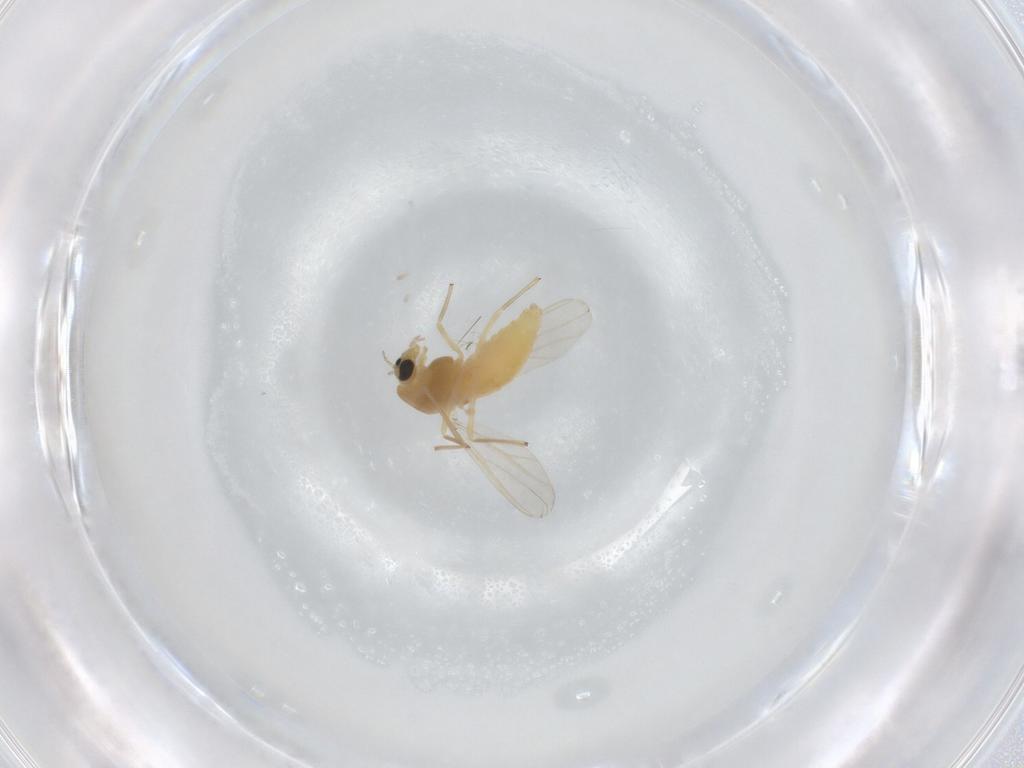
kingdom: Animalia
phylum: Arthropoda
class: Insecta
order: Diptera
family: Chironomidae
